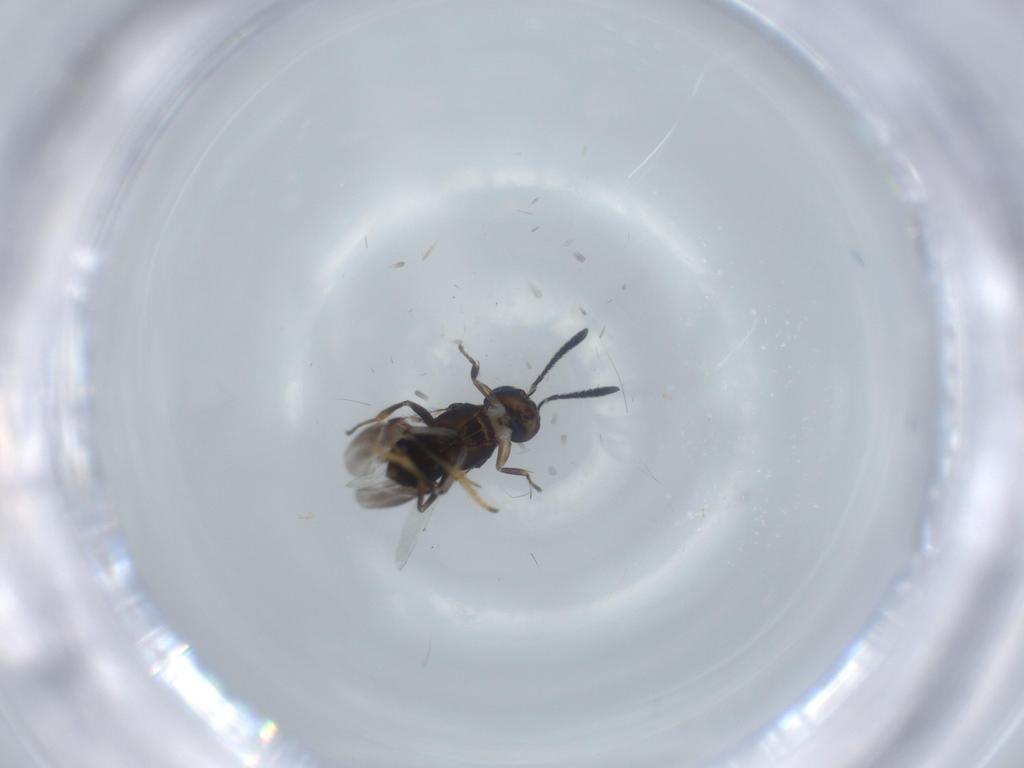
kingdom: Animalia
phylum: Arthropoda
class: Insecta
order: Hymenoptera
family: Encyrtidae
